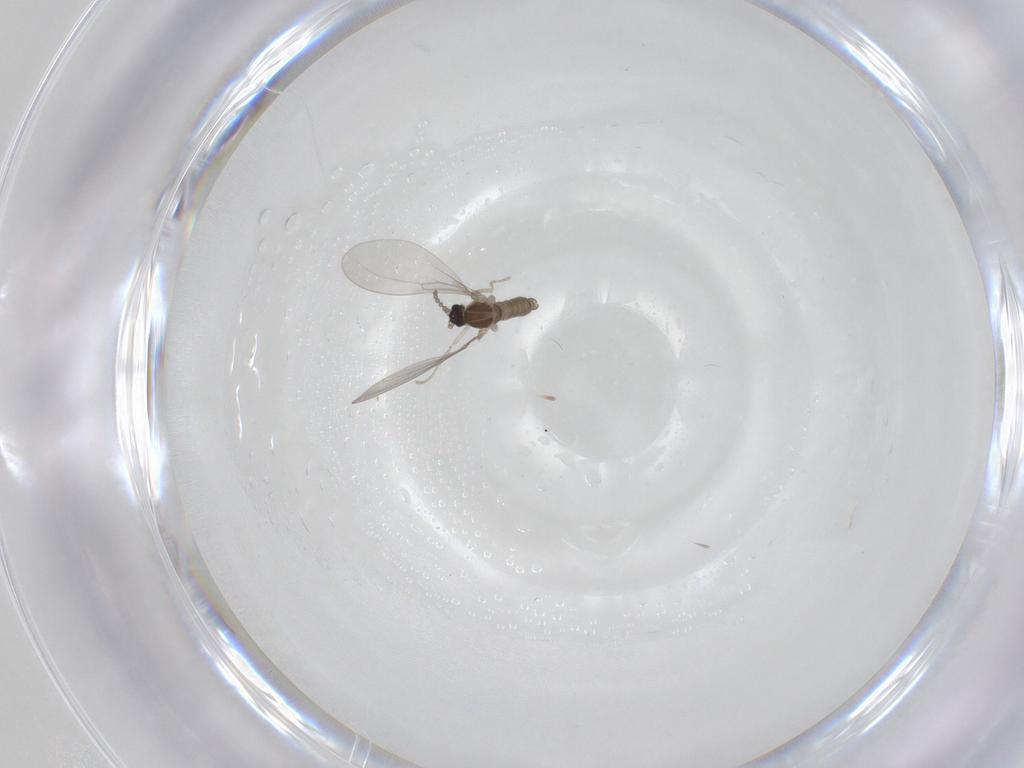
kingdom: Animalia
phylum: Arthropoda
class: Insecta
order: Diptera
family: Cecidomyiidae
